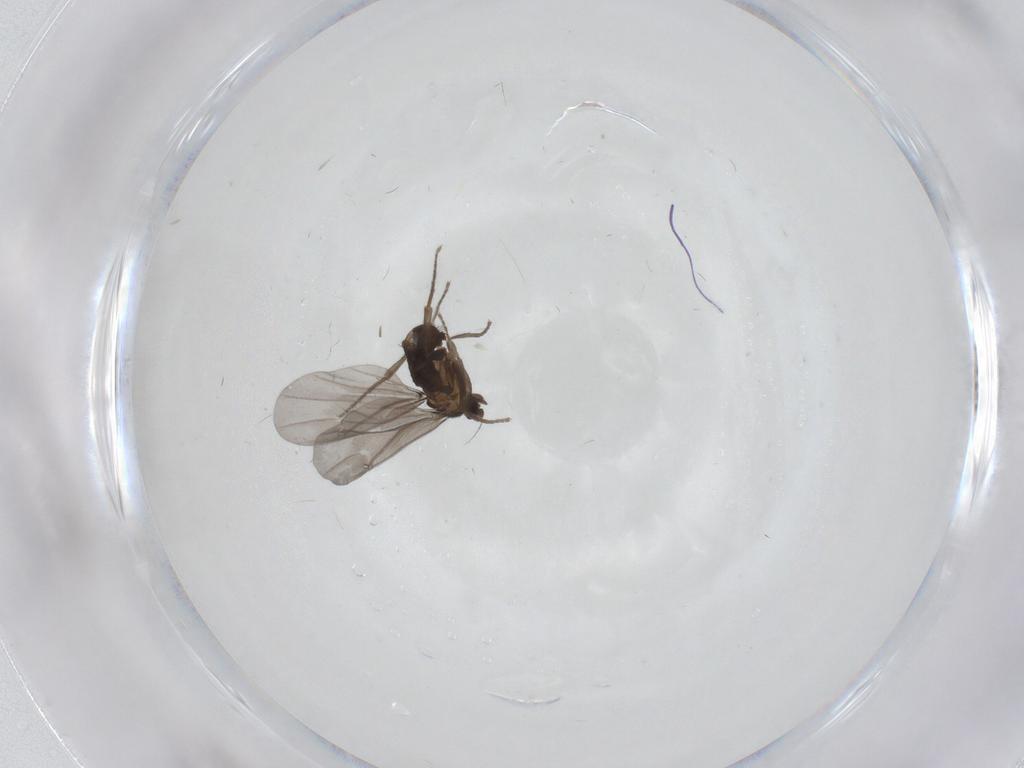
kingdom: Animalia
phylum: Arthropoda
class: Insecta
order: Diptera
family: Phoridae
